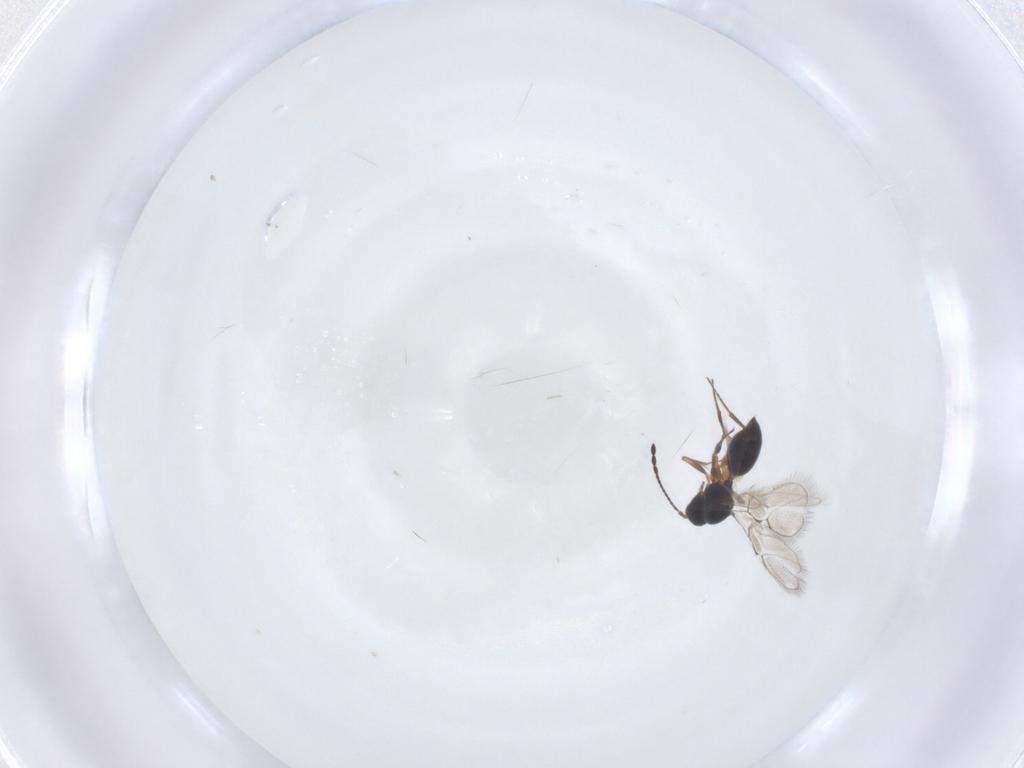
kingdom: Animalia
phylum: Arthropoda
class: Insecta
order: Hymenoptera
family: Figitidae
